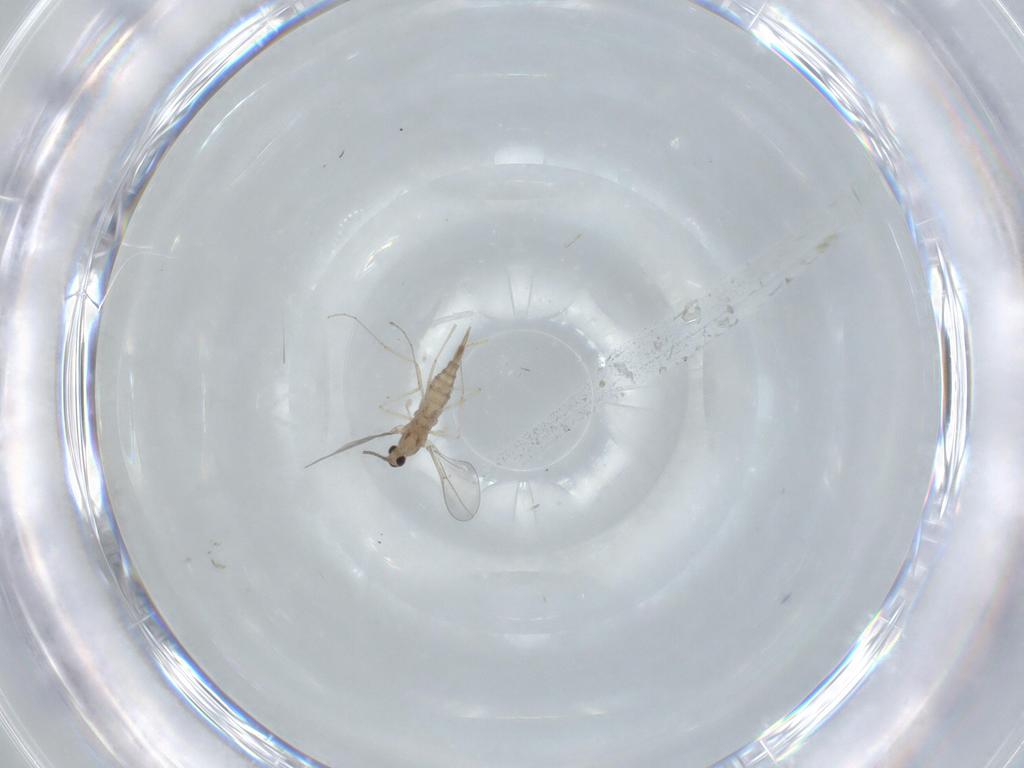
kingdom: Animalia
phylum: Arthropoda
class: Insecta
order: Diptera
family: Cecidomyiidae
